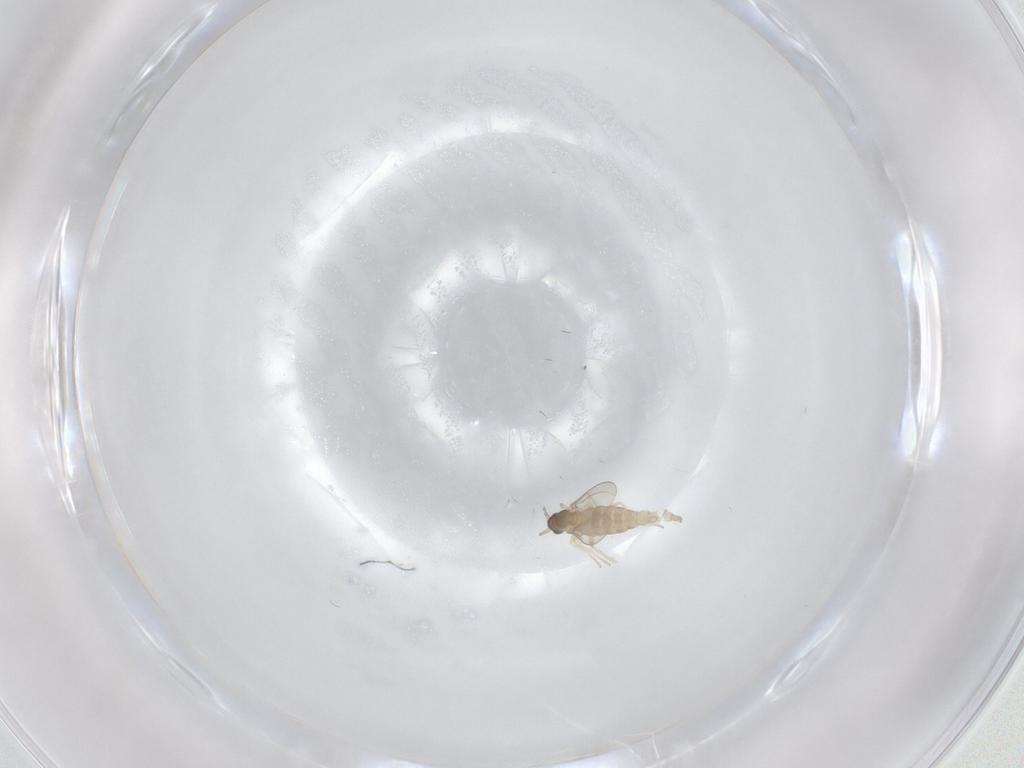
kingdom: Animalia
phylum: Arthropoda
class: Insecta
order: Diptera
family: Cecidomyiidae
